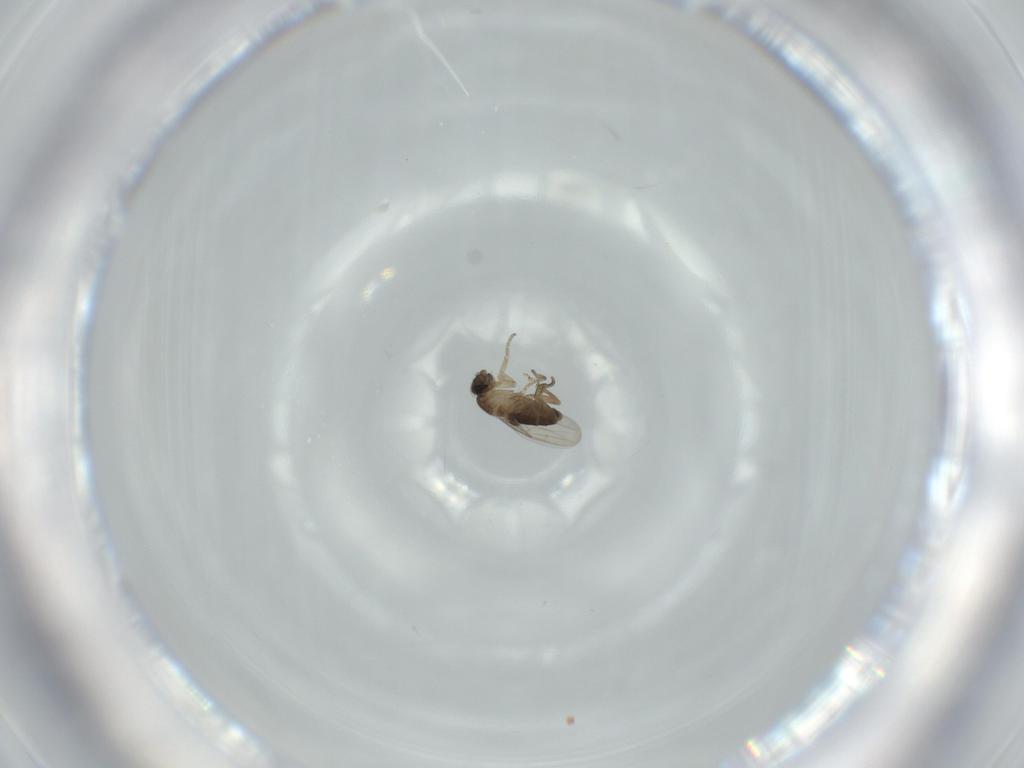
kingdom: Animalia
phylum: Arthropoda
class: Insecta
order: Diptera
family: Phoridae
